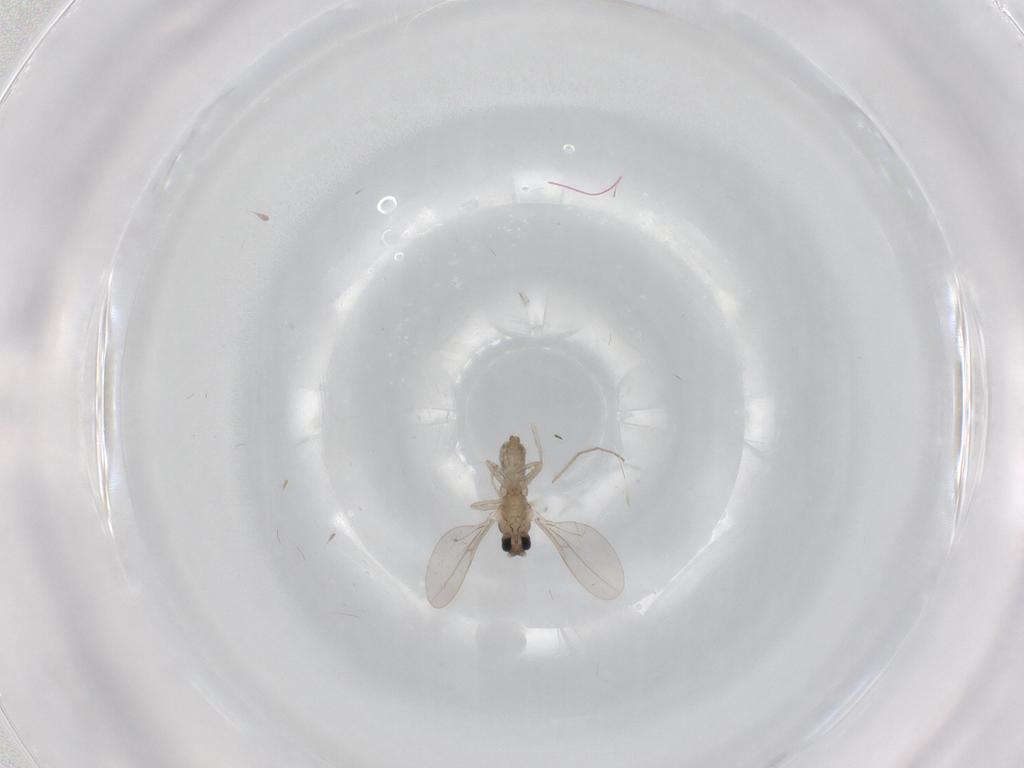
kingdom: Animalia
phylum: Arthropoda
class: Insecta
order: Diptera
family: Cecidomyiidae
